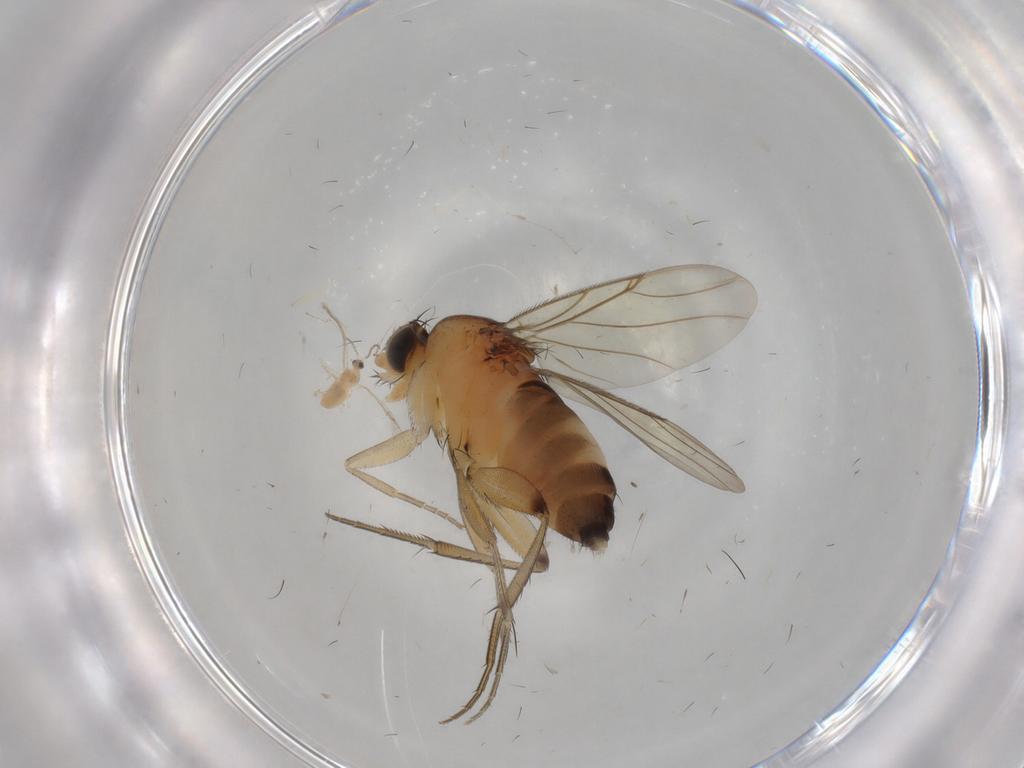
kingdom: Animalia
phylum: Arthropoda
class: Insecta
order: Diptera
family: Phoridae
